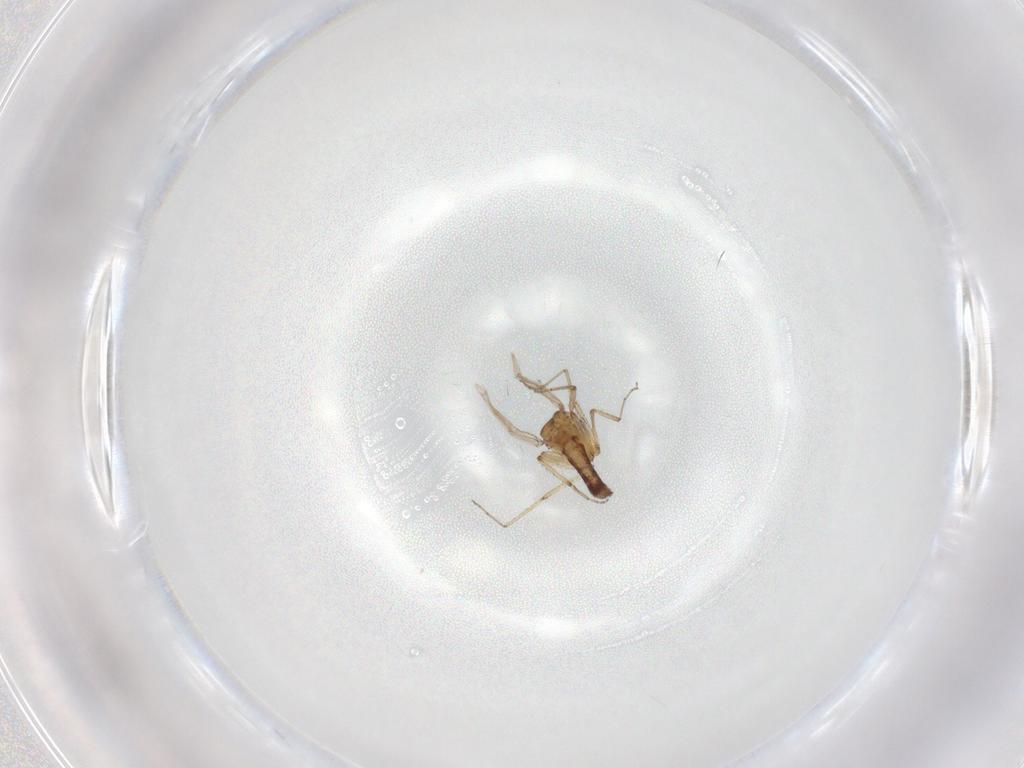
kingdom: Animalia
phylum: Arthropoda
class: Insecta
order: Diptera
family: Ceratopogonidae
